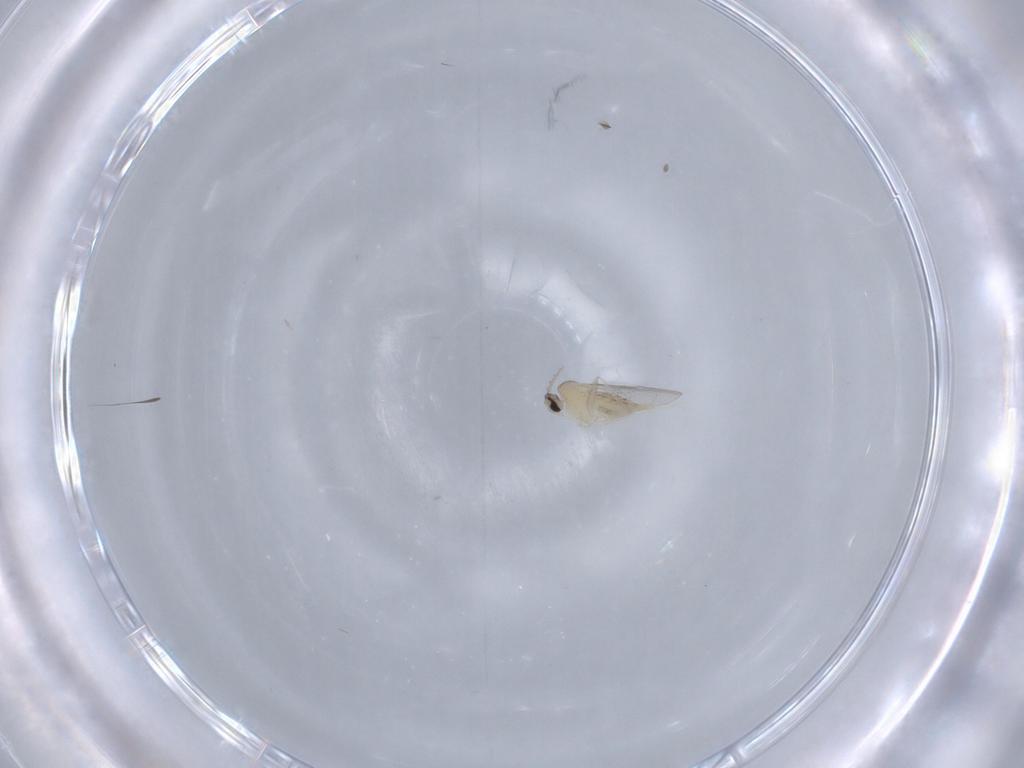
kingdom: Animalia
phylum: Arthropoda
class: Insecta
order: Diptera
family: Cecidomyiidae
